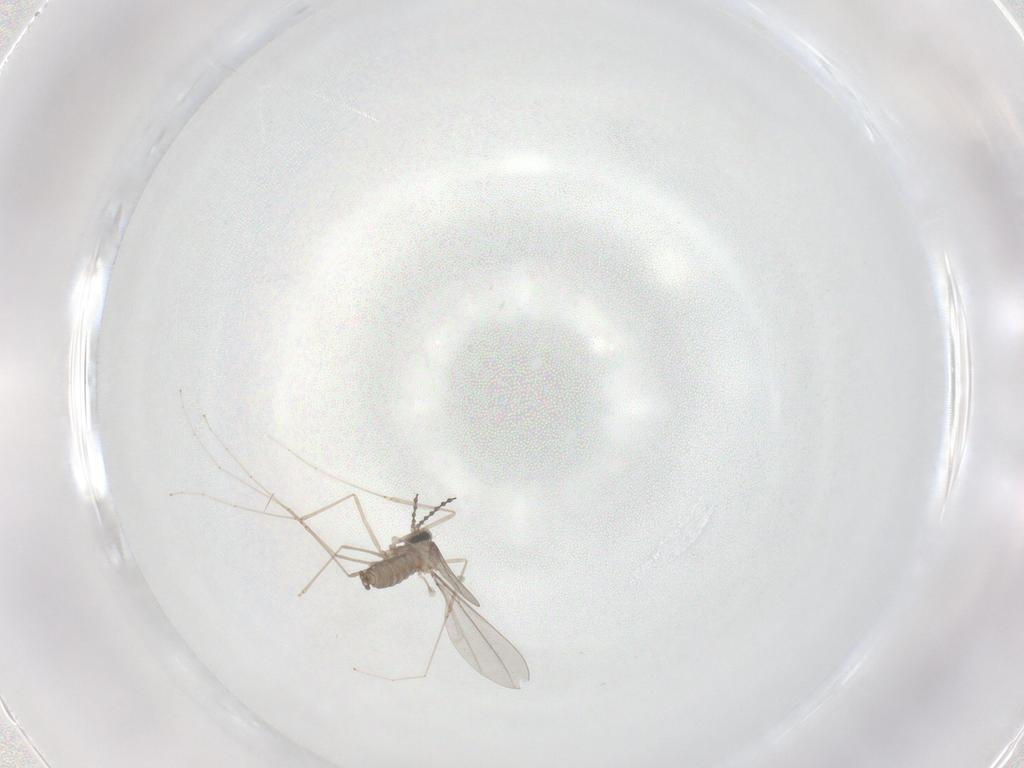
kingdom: Animalia
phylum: Arthropoda
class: Insecta
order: Diptera
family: Cecidomyiidae
